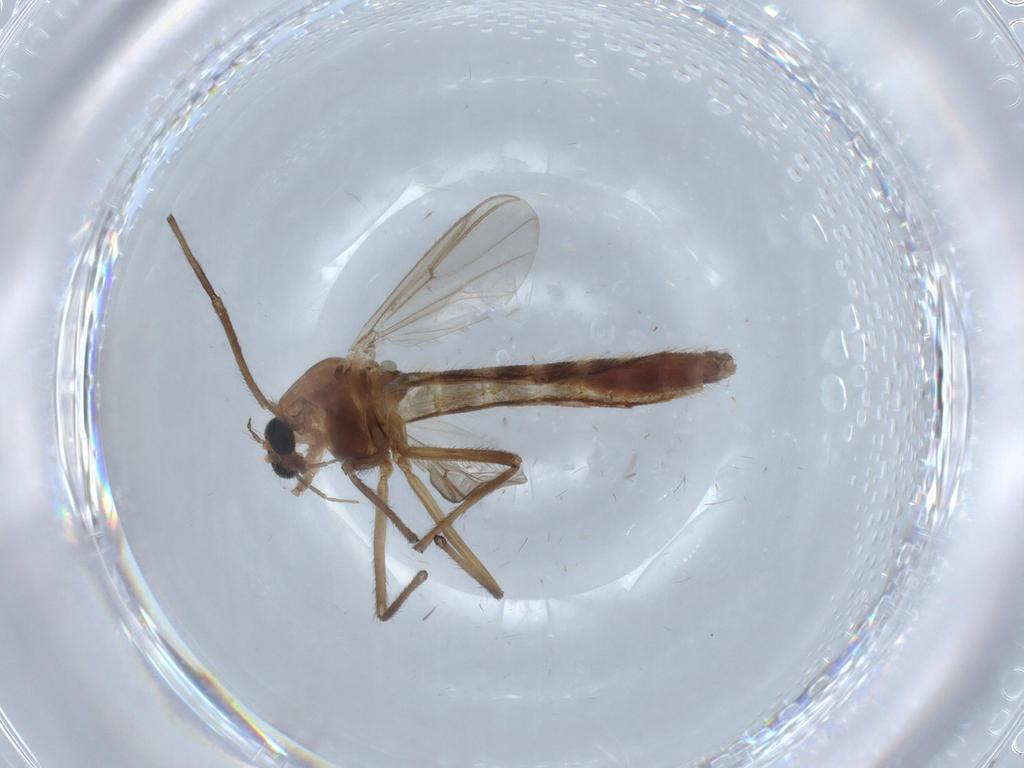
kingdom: Animalia
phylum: Arthropoda
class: Insecta
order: Diptera
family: Chironomidae
